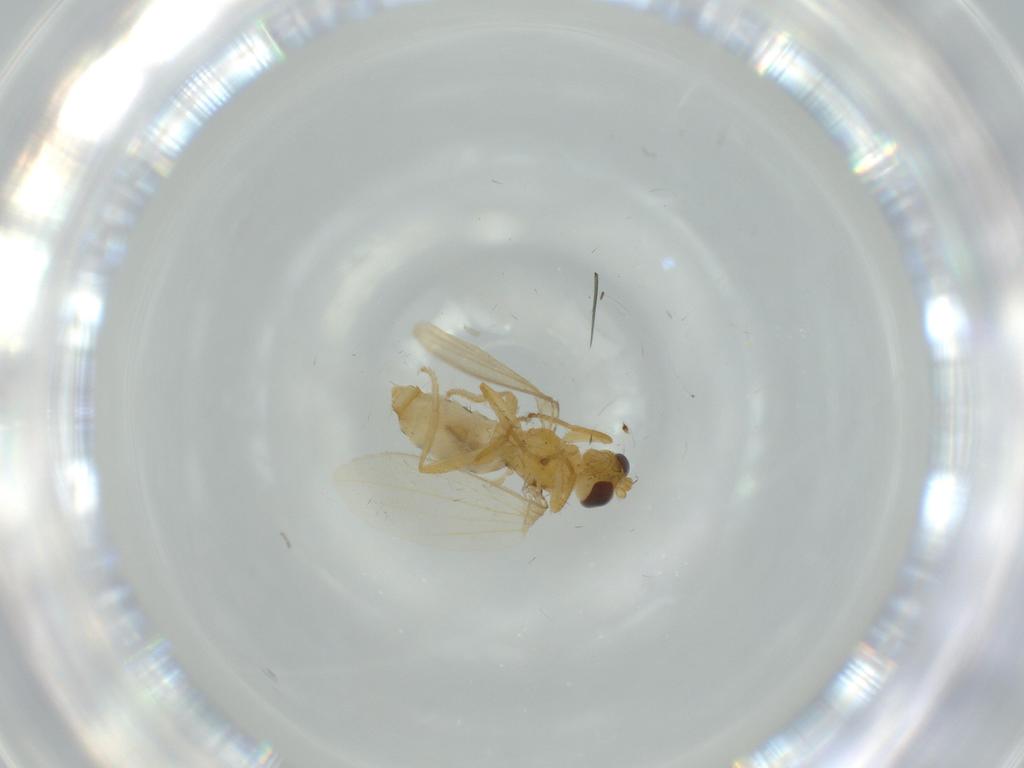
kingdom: Animalia
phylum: Arthropoda
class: Insecta
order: Diptera
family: Periscelididae
